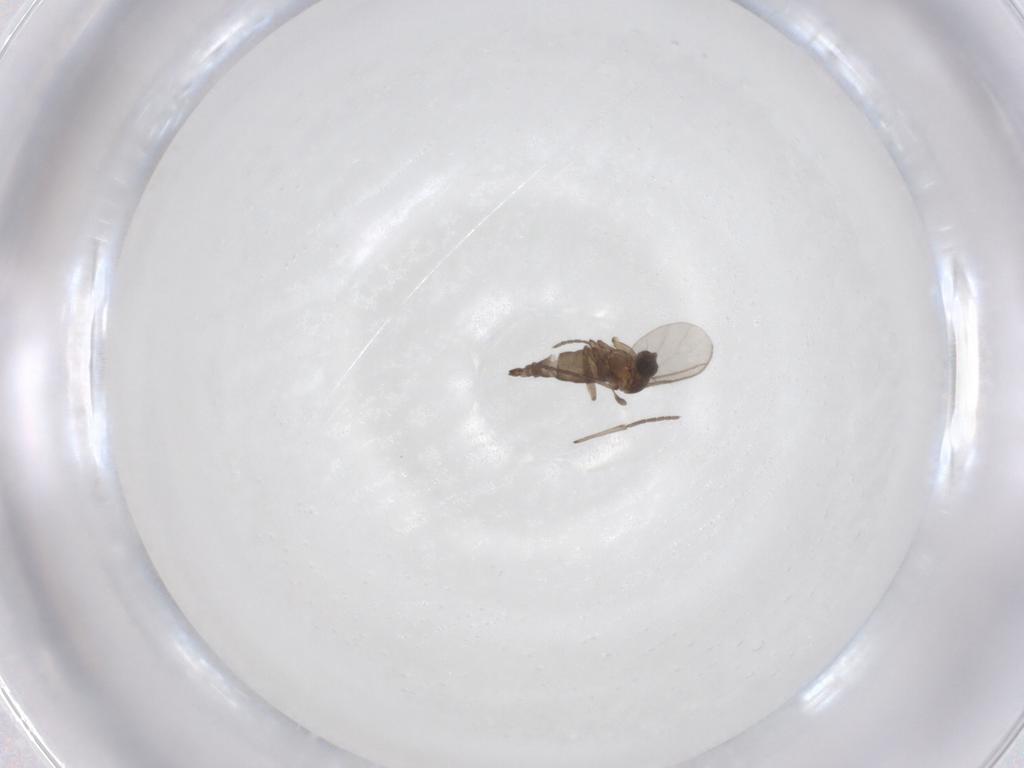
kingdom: Animalia
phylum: Arthropoda
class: Insecta
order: Diptera
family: Sciaridae
